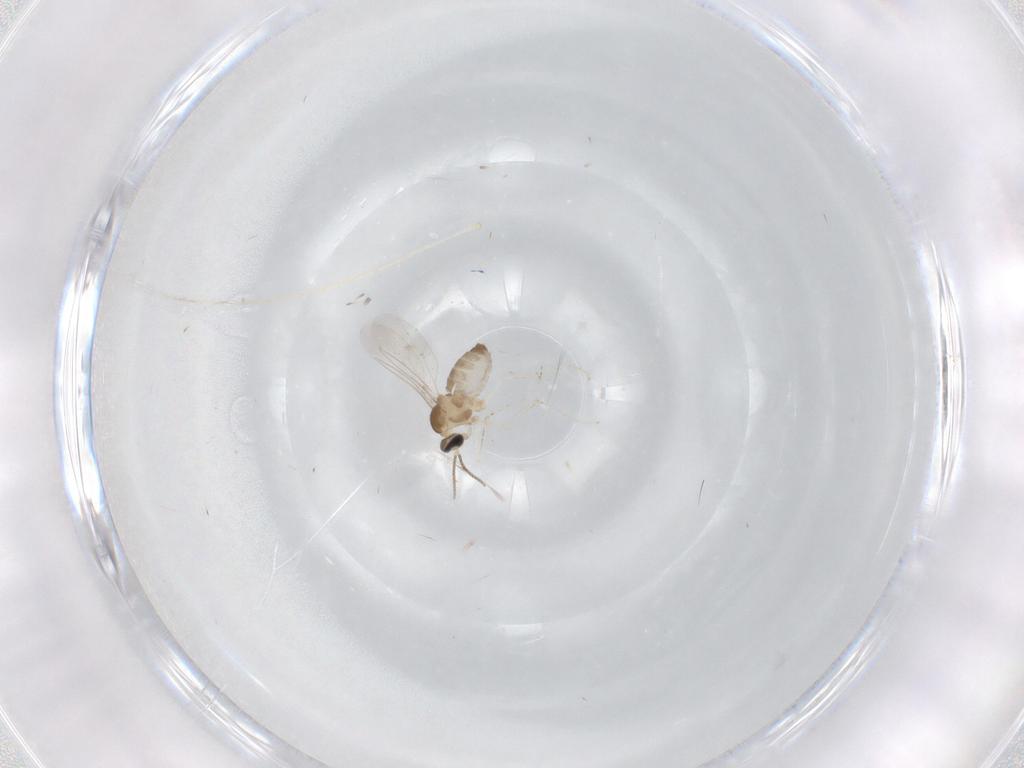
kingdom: Animalia
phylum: Arthropoda
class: Insecta
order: Diptera
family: Cecidomyiidae
